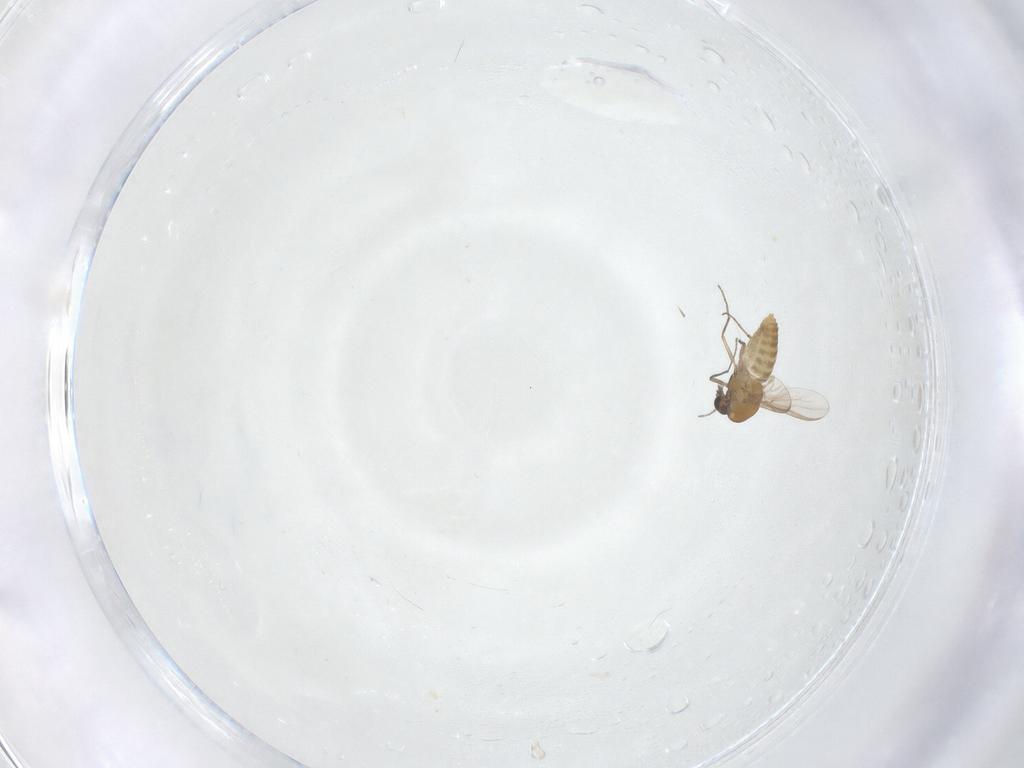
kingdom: Animalia
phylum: Arthropoda
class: Insecta
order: Diptera
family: Chironomidae
